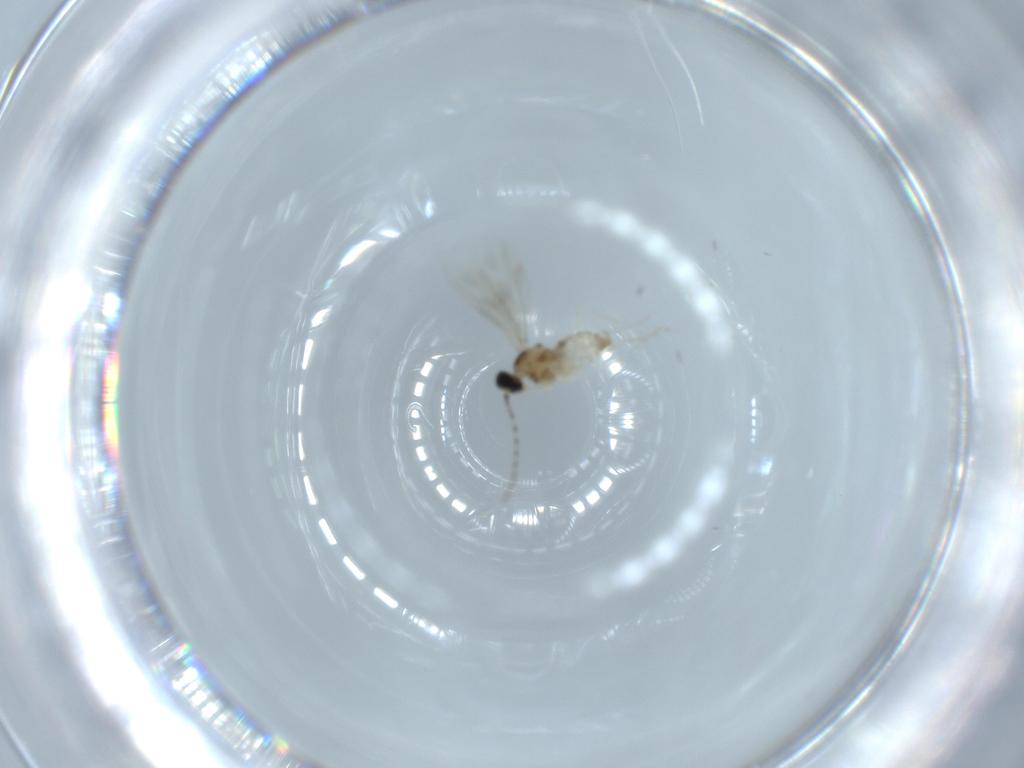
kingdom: Animalia
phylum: Arthropoda
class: Insecta
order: Diptera
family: Cecidomyiidae
